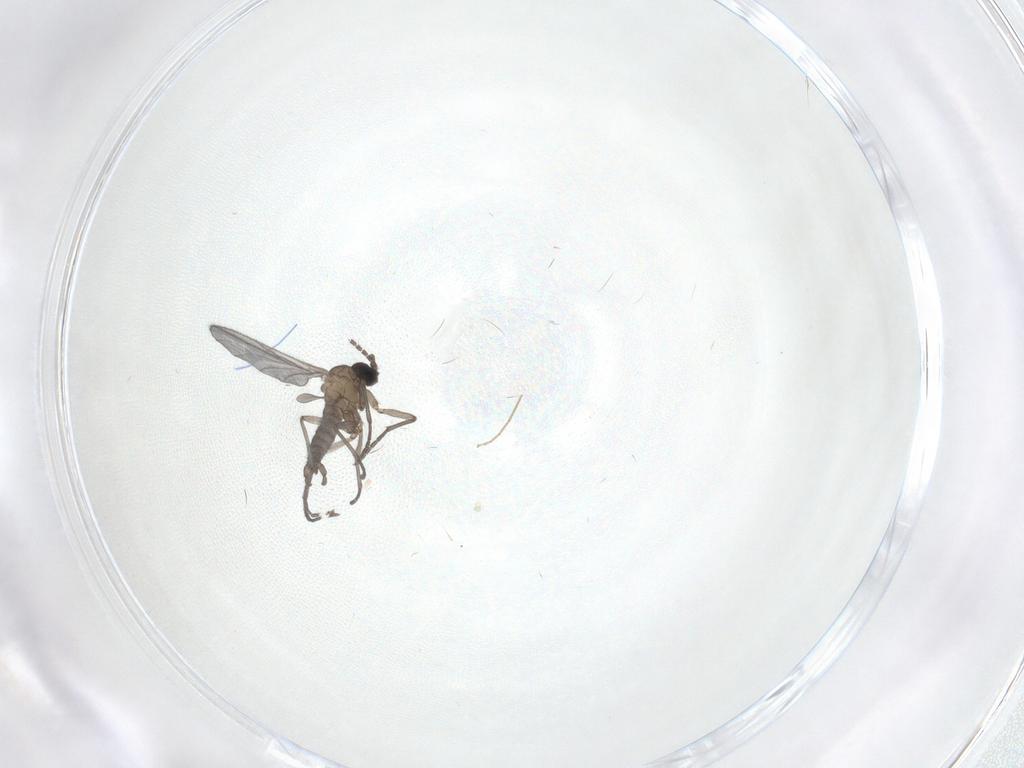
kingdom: Animalia
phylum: Arthropoda
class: Insecta
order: Diptera
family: Chironomidae
